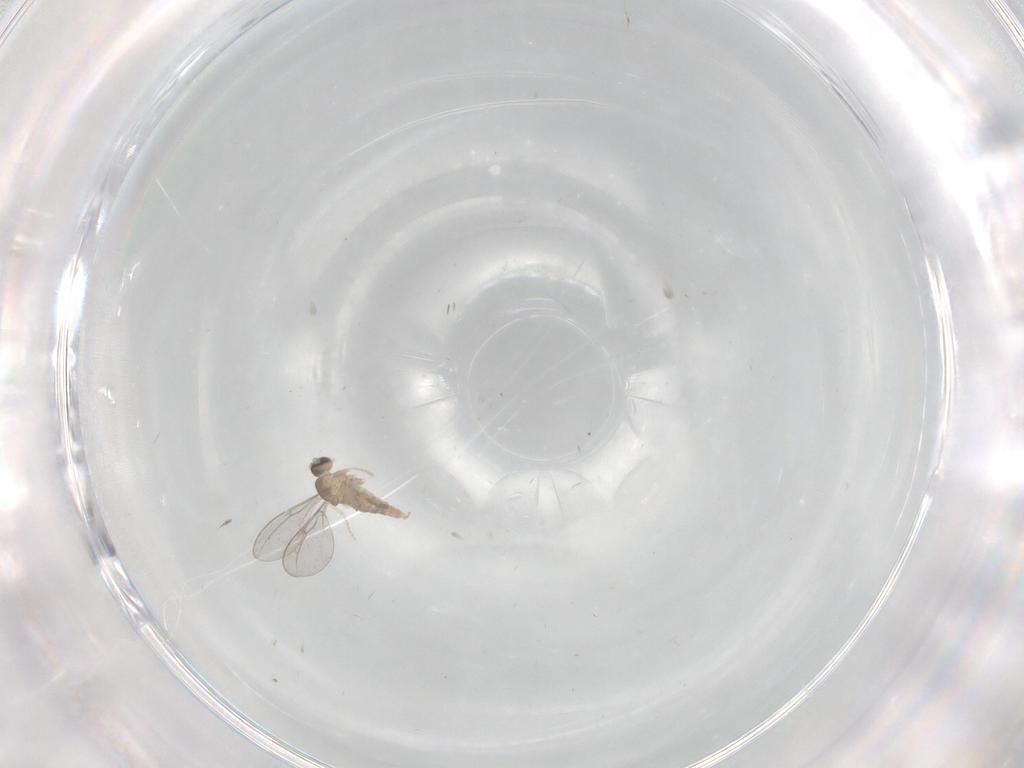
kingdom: Animalia
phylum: Arthropoda
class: Insecta
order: Diptera
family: Cecidomyiidae
